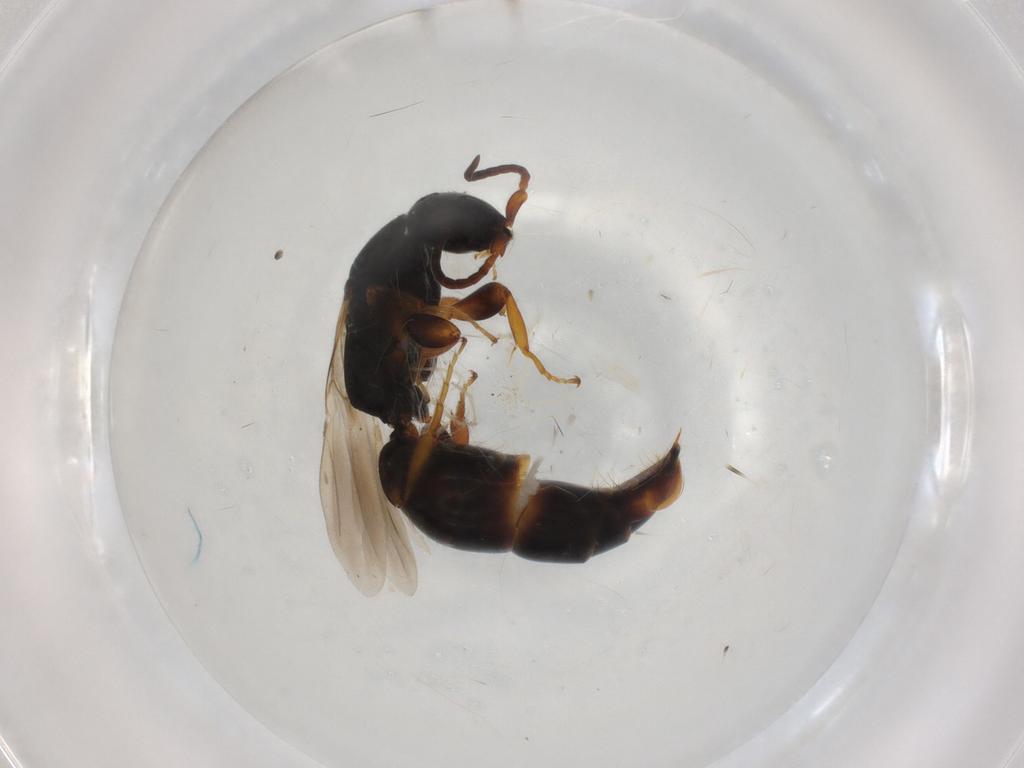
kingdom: Animalia
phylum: Arthropoda
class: Insecta
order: Hymenoptera
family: Bethylidae
